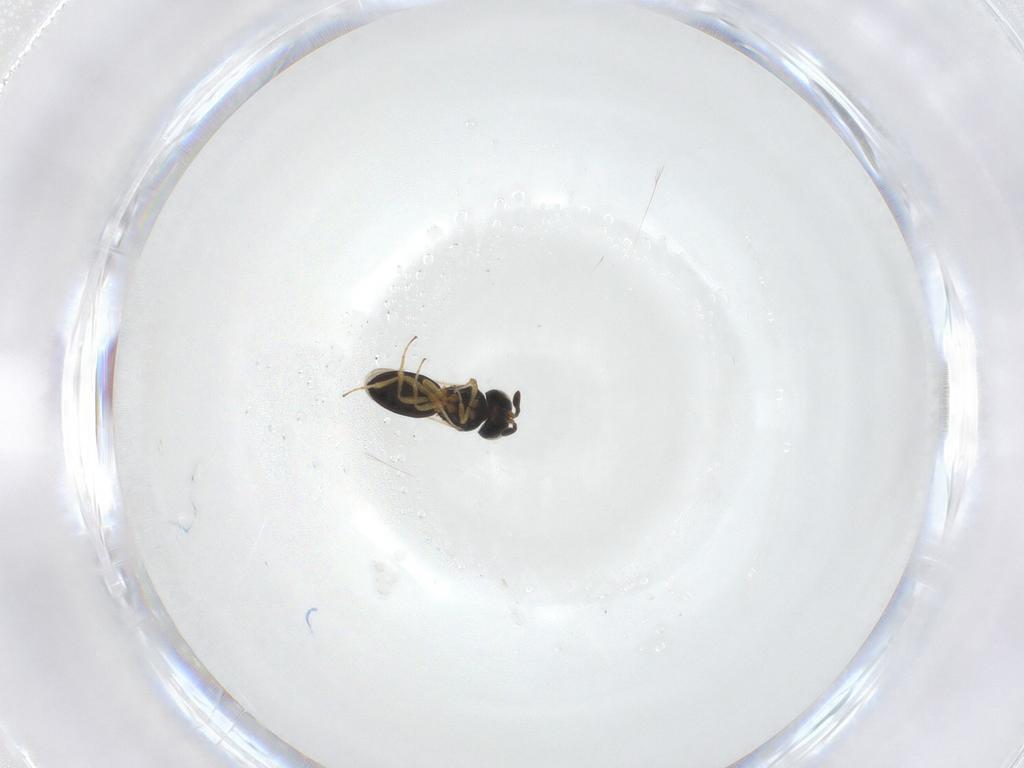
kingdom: Animalia
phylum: Arthropoda
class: Insecta
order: Hymenoptera
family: Scelionidae
